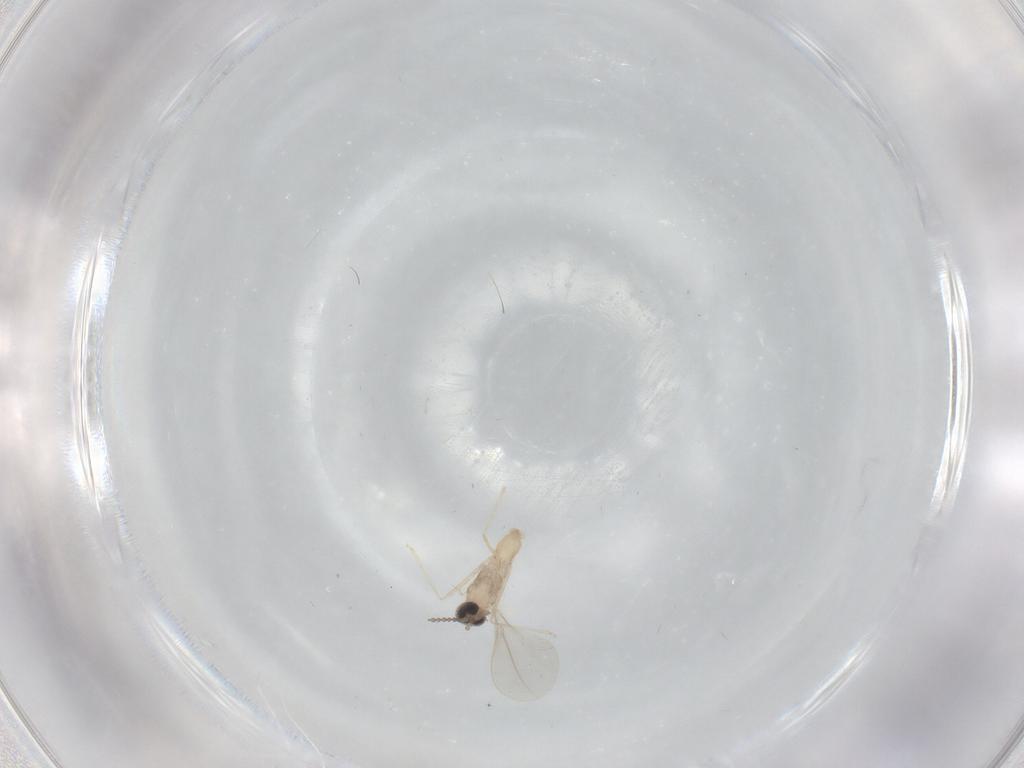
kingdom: Animalia
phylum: Arthropoda
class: Insecta
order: Diptera
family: Cecidomyiidae
